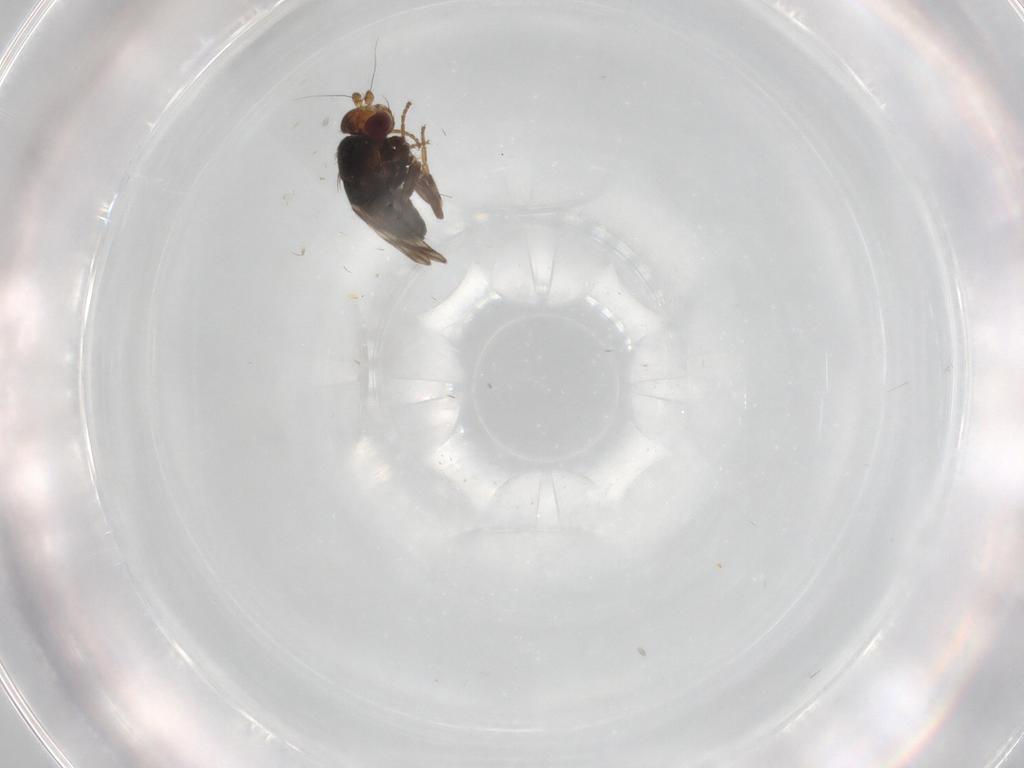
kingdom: Animalia
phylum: Arthropoda
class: Insecta
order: Diptera
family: Sphaeroceridae
